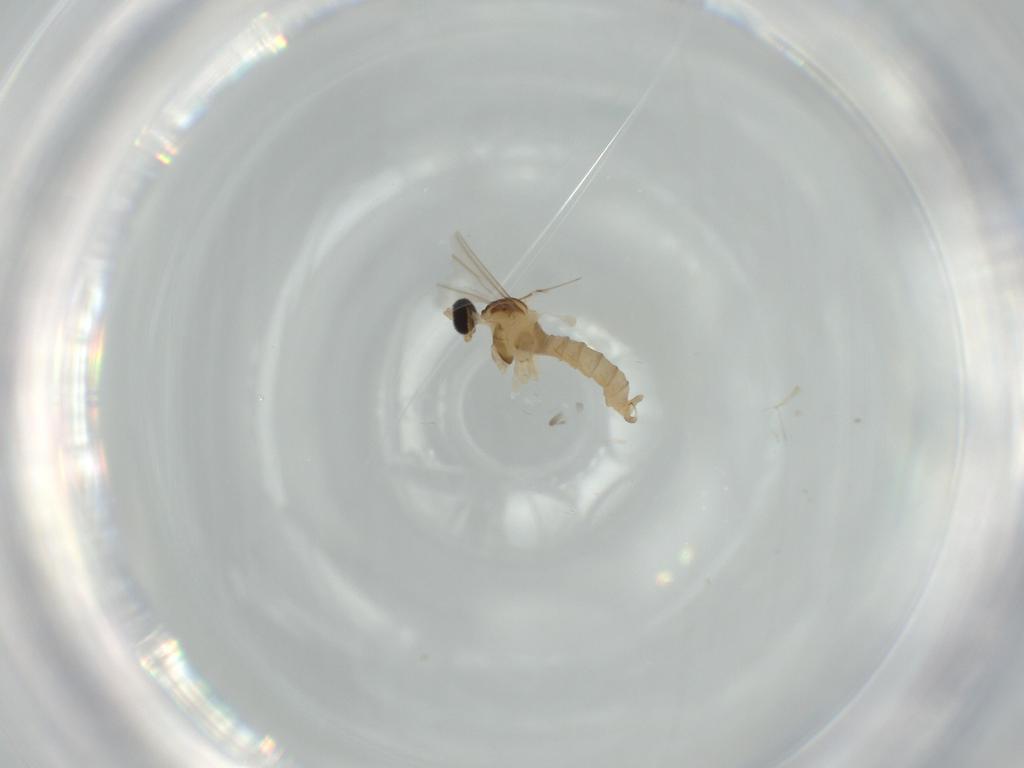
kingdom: Animalia
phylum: Arthropoda
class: Insecta
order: Diptera
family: Cecidomyiidae
